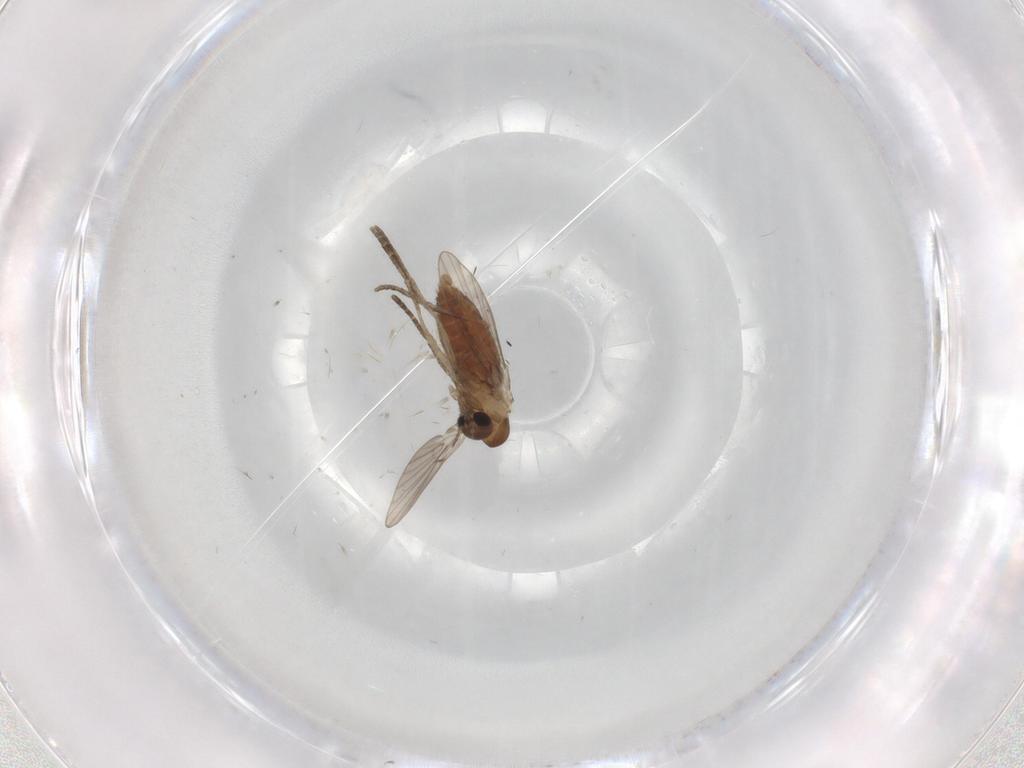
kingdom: Animalia
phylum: Arthropoda
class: Insecta
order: Diptera
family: Psychodidae
